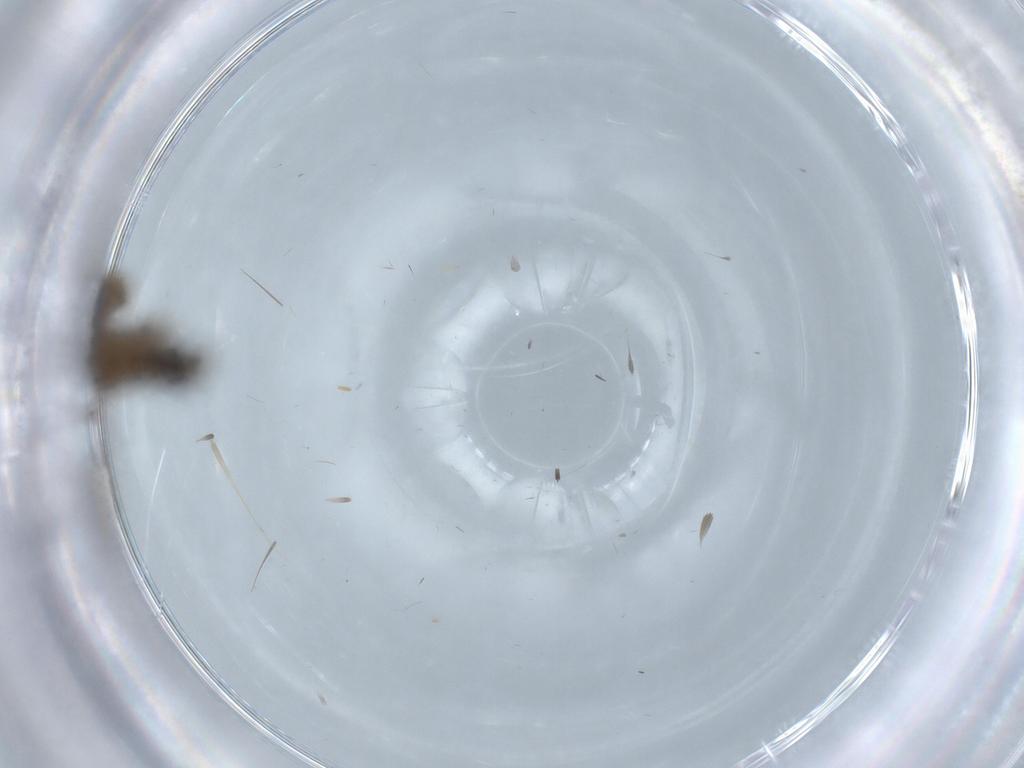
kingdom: Animalia
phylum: Arthropoda
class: Insecta
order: Diptera
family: Limoniidae
